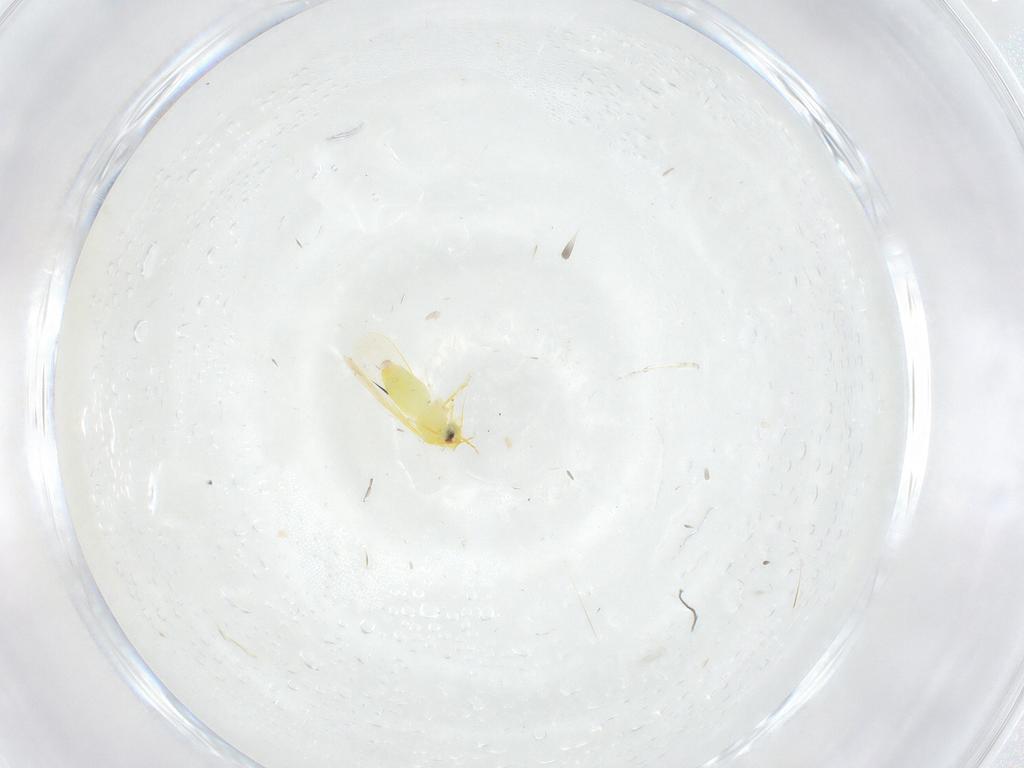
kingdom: Animalia
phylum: Arthropoda
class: Insecta
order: Hemiptera
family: Cicadellidae
